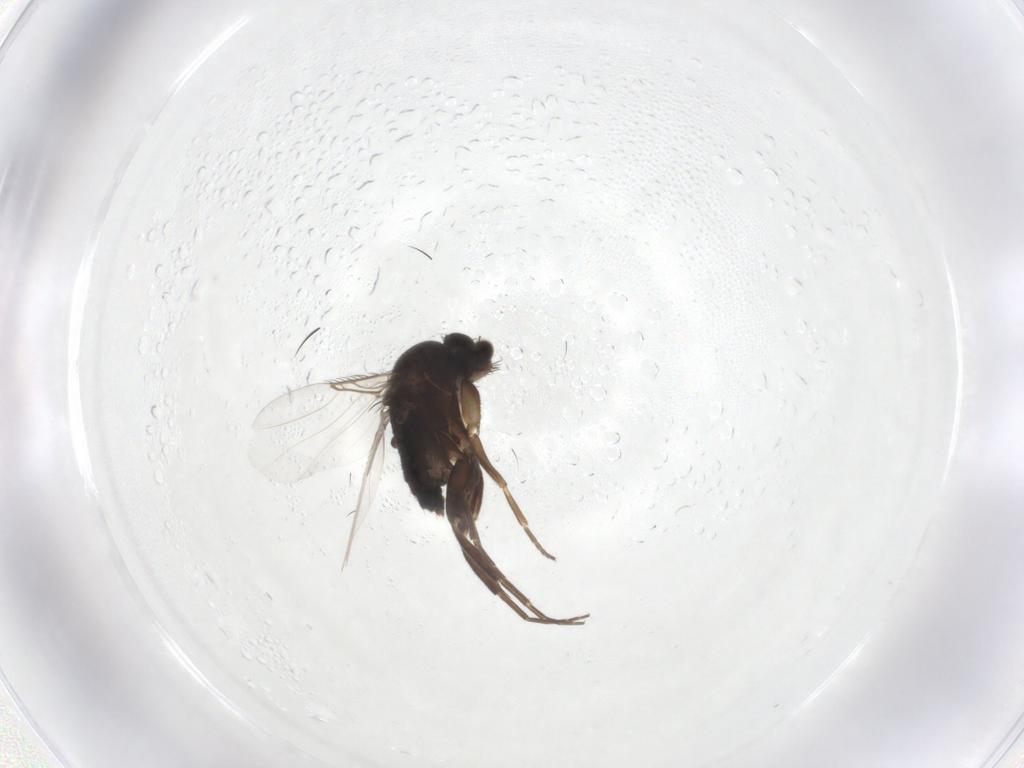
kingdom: Animalia
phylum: Arthropoda
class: Insecta
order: Diptera
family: Phoridae
